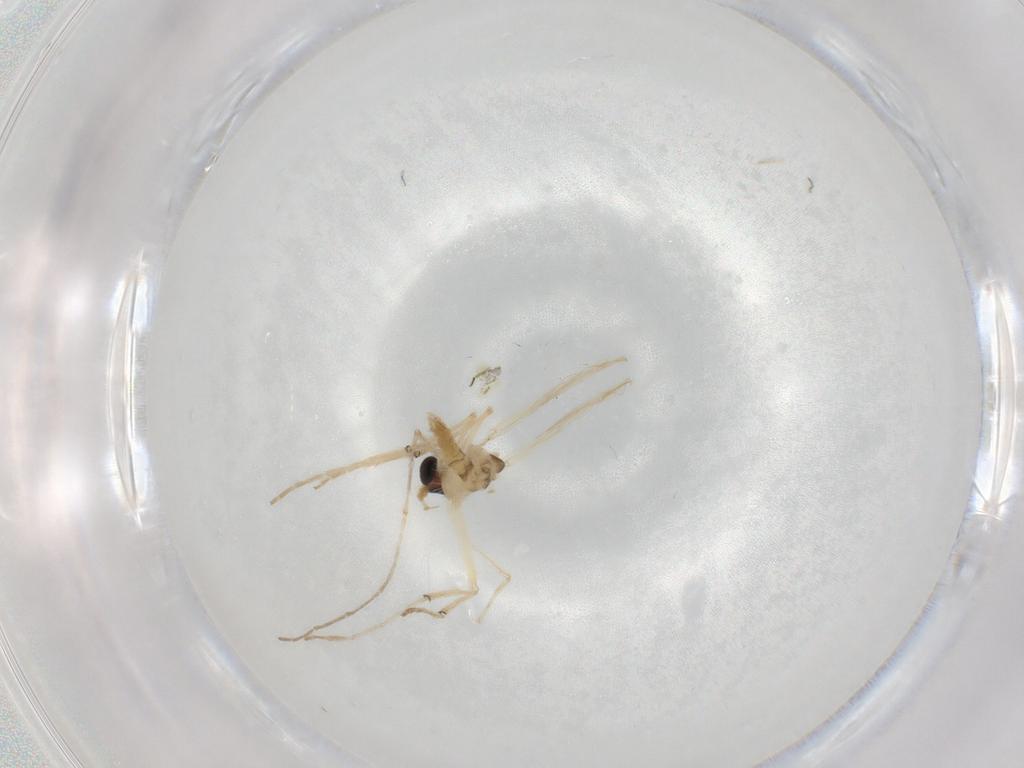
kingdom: Animalia
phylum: Arthropoda
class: Insecta
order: Diptera
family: Chironomidae
